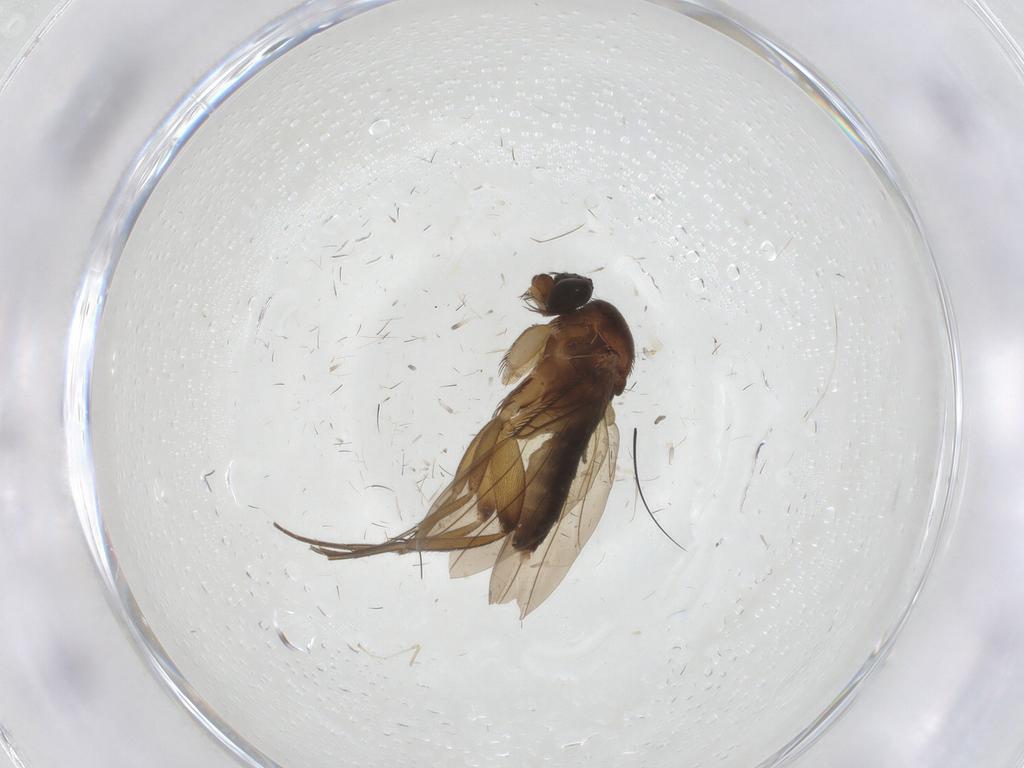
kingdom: Animalia
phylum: Arthropoda
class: Insecta
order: Diptera
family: Phoridae
